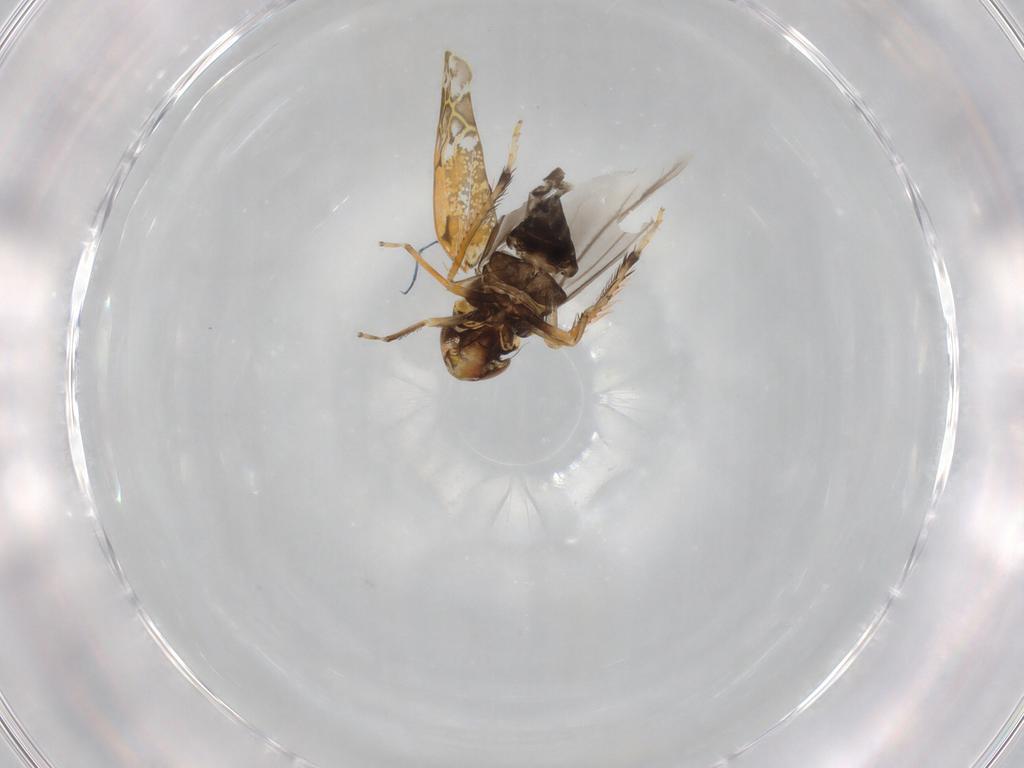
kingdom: Animalia
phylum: Arthropoda
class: Insecta
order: Hemiptera
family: Cicadellidae
